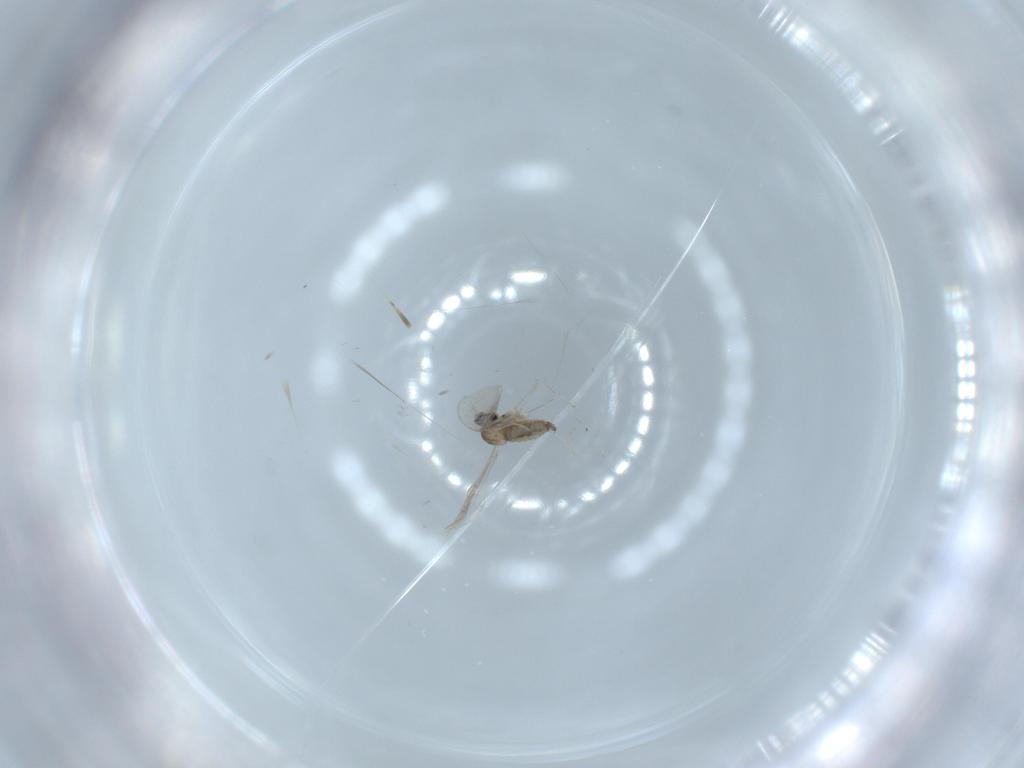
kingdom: Animalia
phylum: Arthropoda
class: Insecta
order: Diptera
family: Cecidomyiidae
